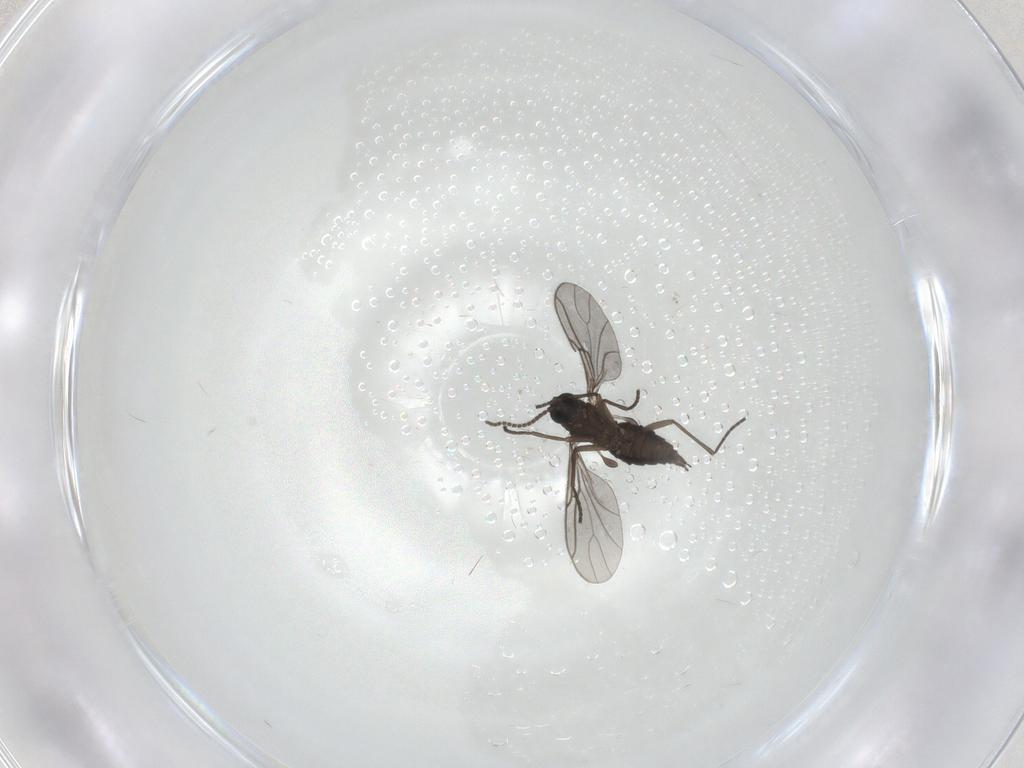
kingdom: Animalia
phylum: Arthropoda
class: Insecta
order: Diptera
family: Sciaridae
